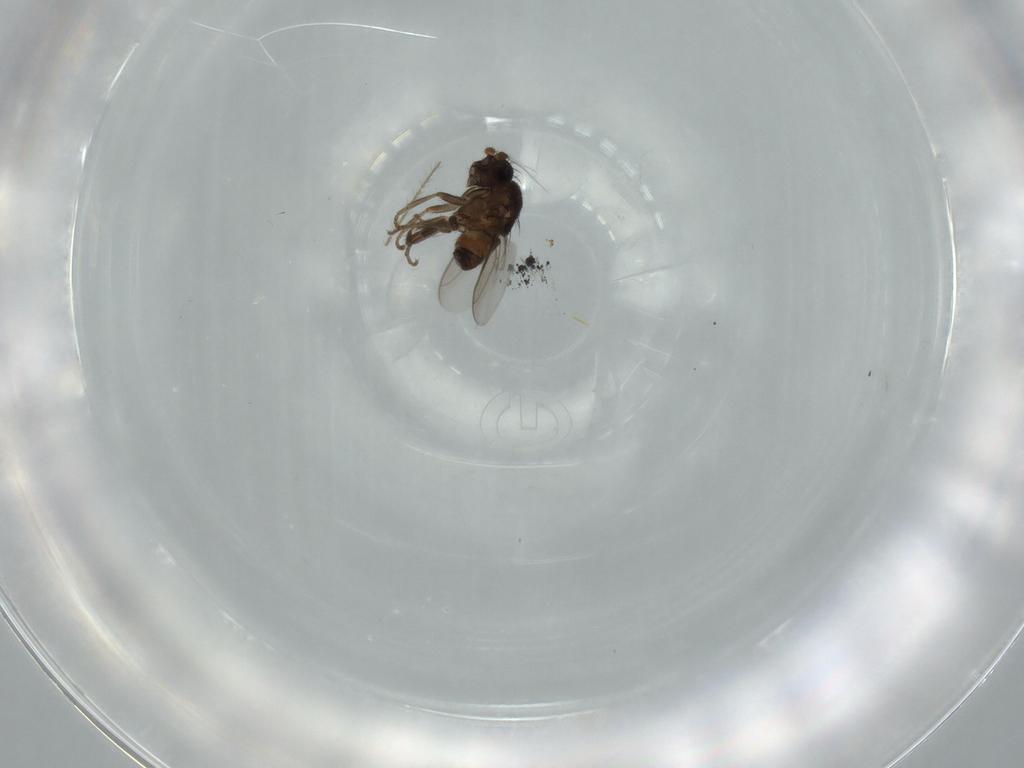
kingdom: Animalia
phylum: Arthropoda
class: Insecta
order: Diptera
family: Sphaeroceridae
